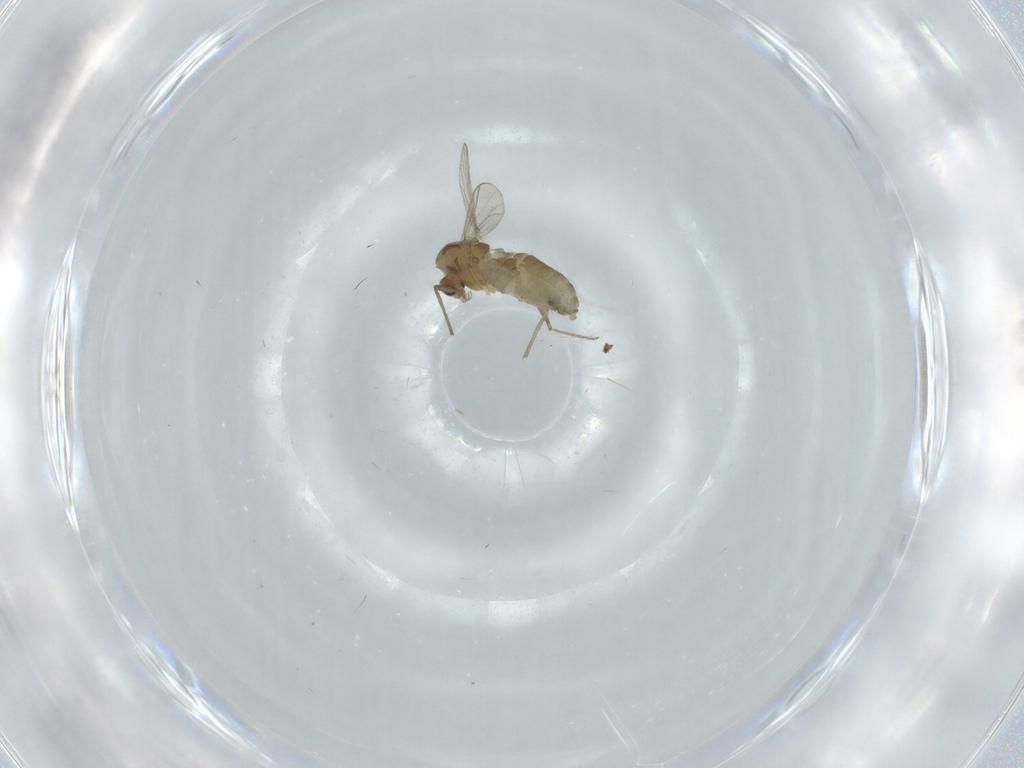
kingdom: Animalia
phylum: Arthropoda
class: Insecta
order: Diptera
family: Chironomidae
